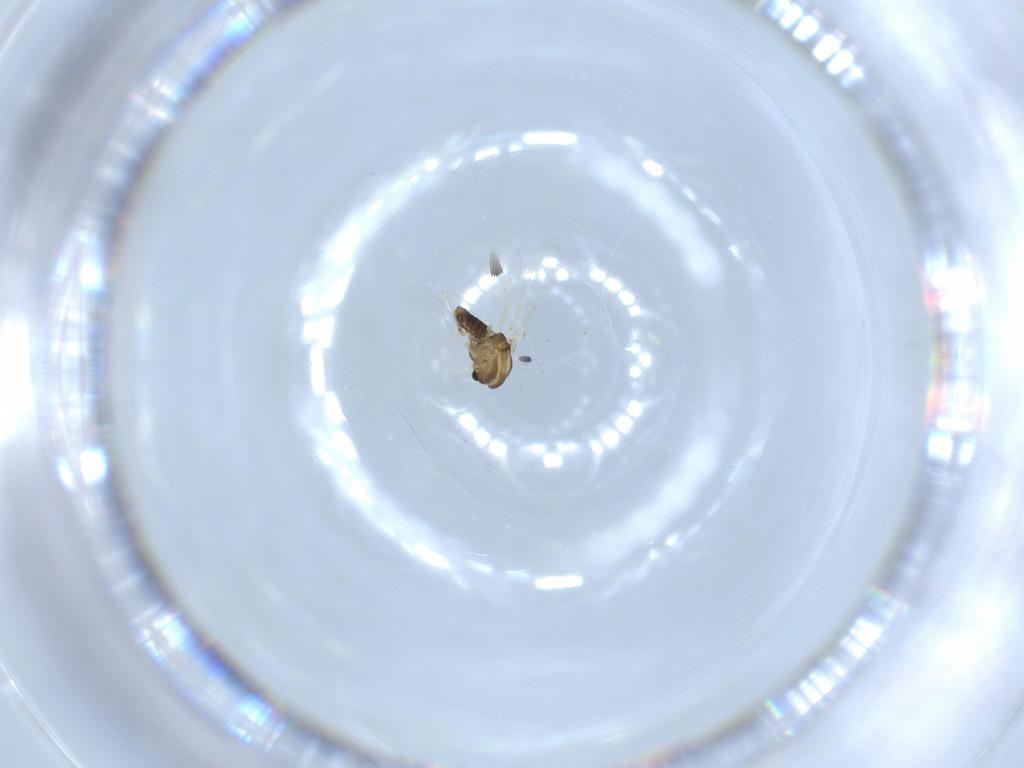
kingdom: Animalia
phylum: Arthropoda
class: Insecta
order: Diptera
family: Chironomidae
